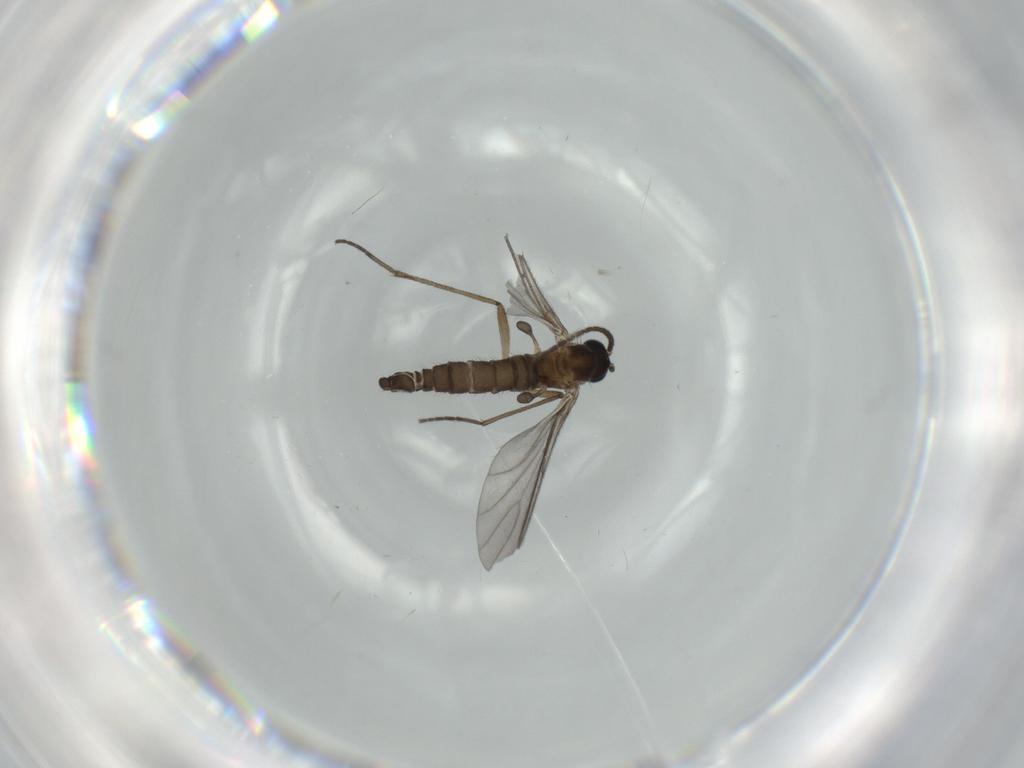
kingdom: Animalia
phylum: Arthropoda
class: Insecta
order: Diptera
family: Sciaridae
